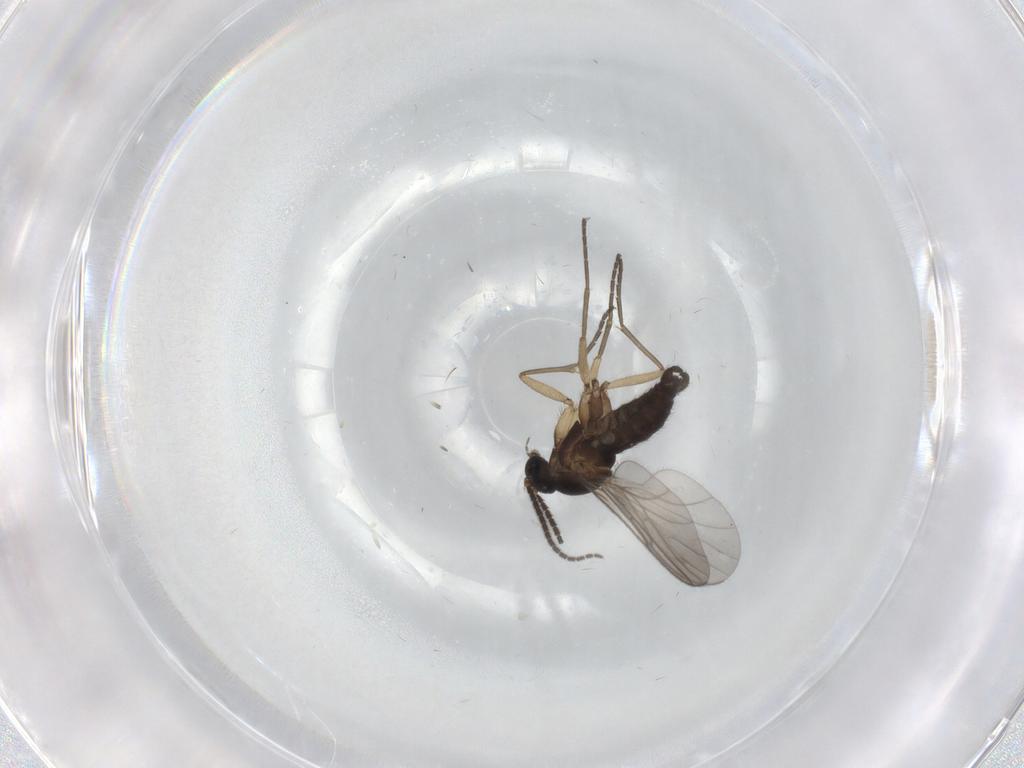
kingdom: Animalia
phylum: Arthropoda
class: Insecta
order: Diptera
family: Sciaridae
